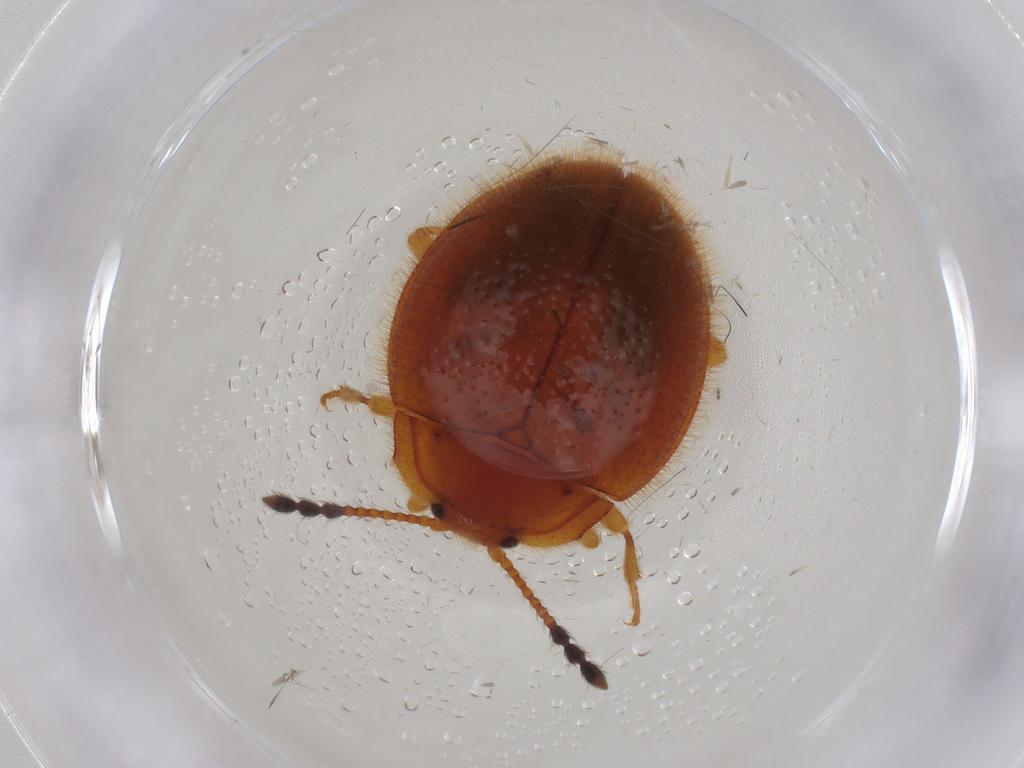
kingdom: Animalia
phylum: Arthropoda
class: Insecta
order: Coleoptera
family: Endomychidae
